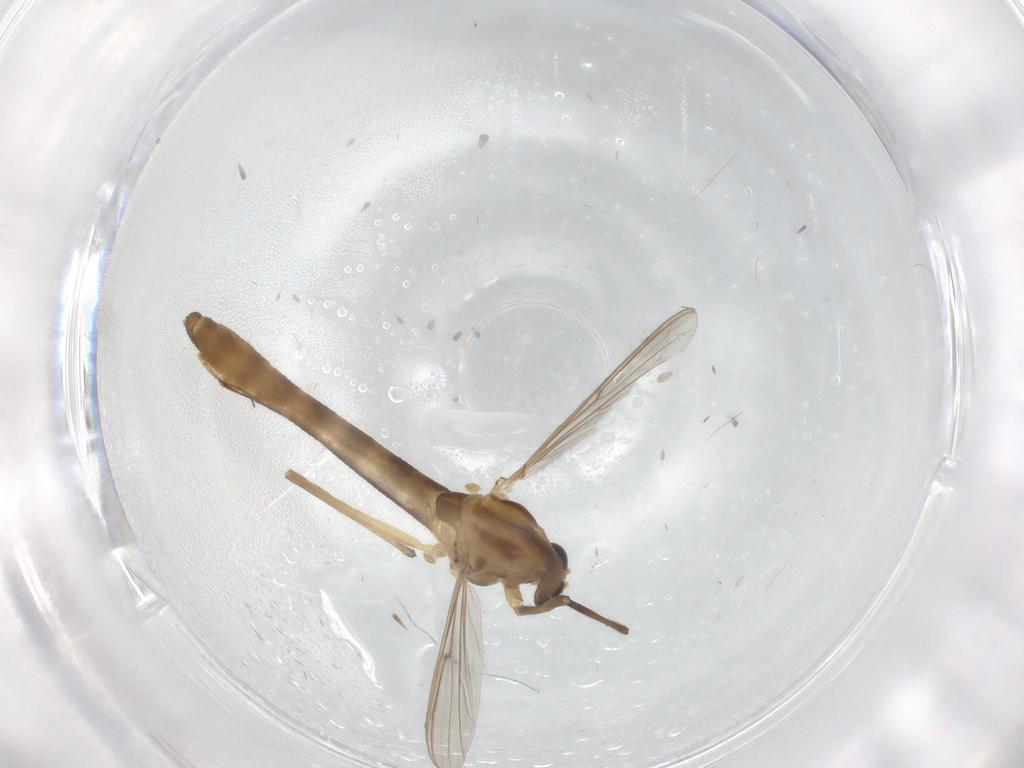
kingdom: Animalia
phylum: Arthropoda
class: Insecta
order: Diptera
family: Chironomidae
